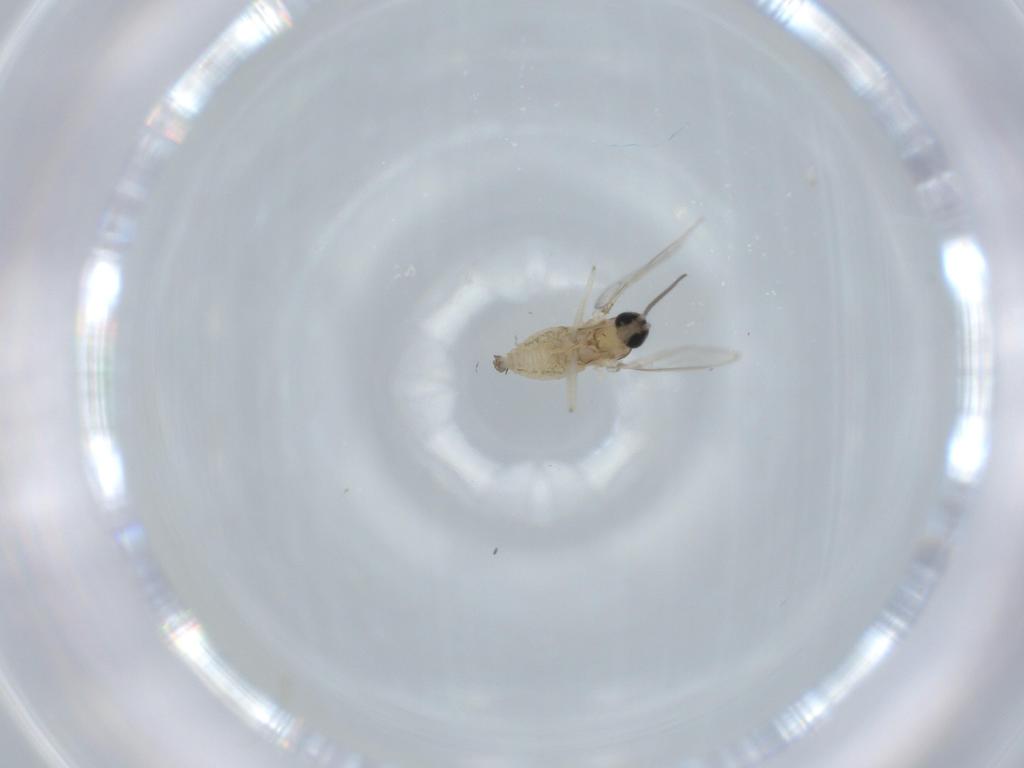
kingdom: Animalia
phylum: Arthropoda
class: Insecta
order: Diptera
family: Cecidomyiidae
